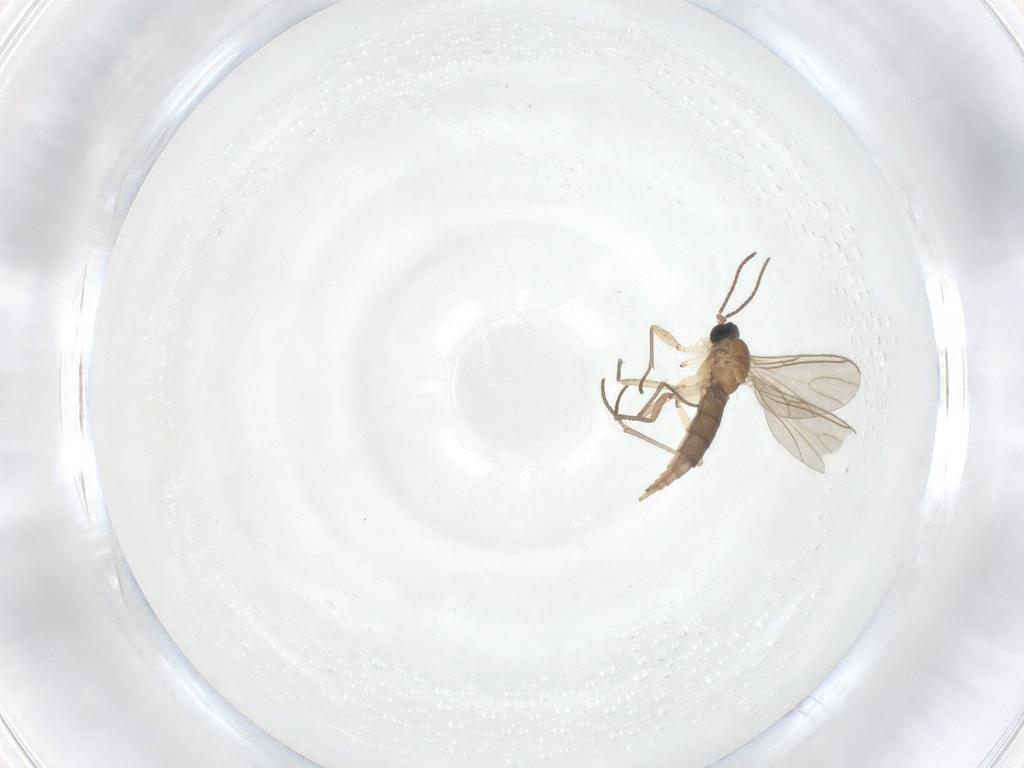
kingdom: Animalia
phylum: Arthropoda
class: Insecta
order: Diptera
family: Sciaridae
